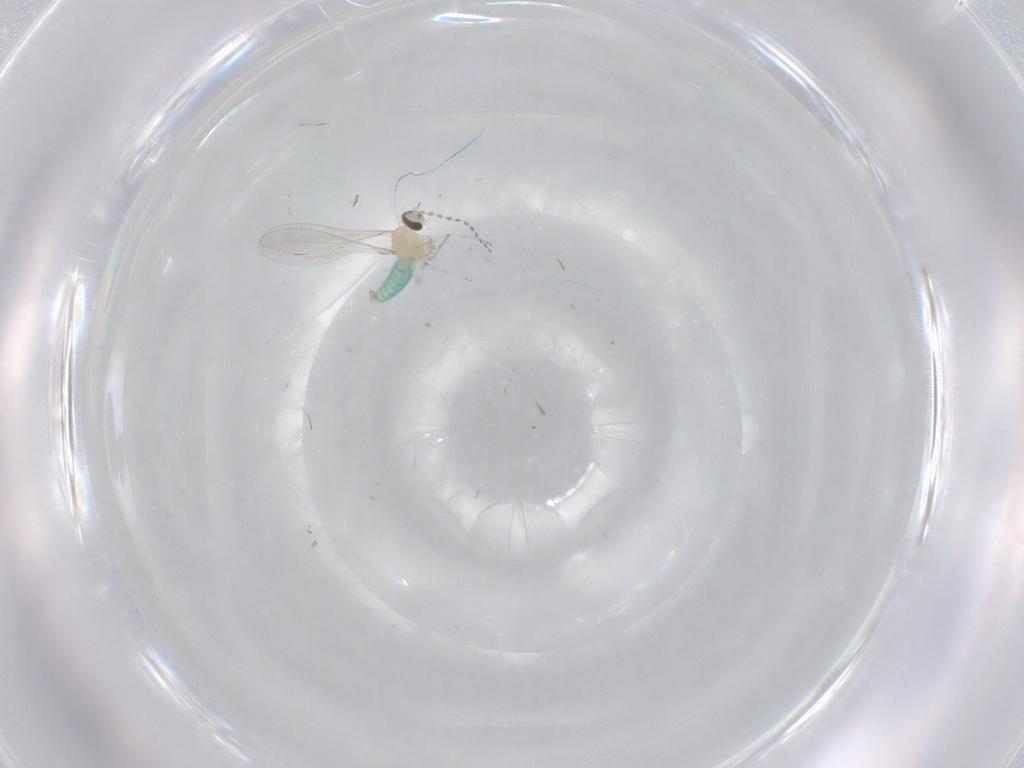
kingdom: Animalia
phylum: Arthropoda
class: Insecta
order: Diptera
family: Cecidomyiidae
